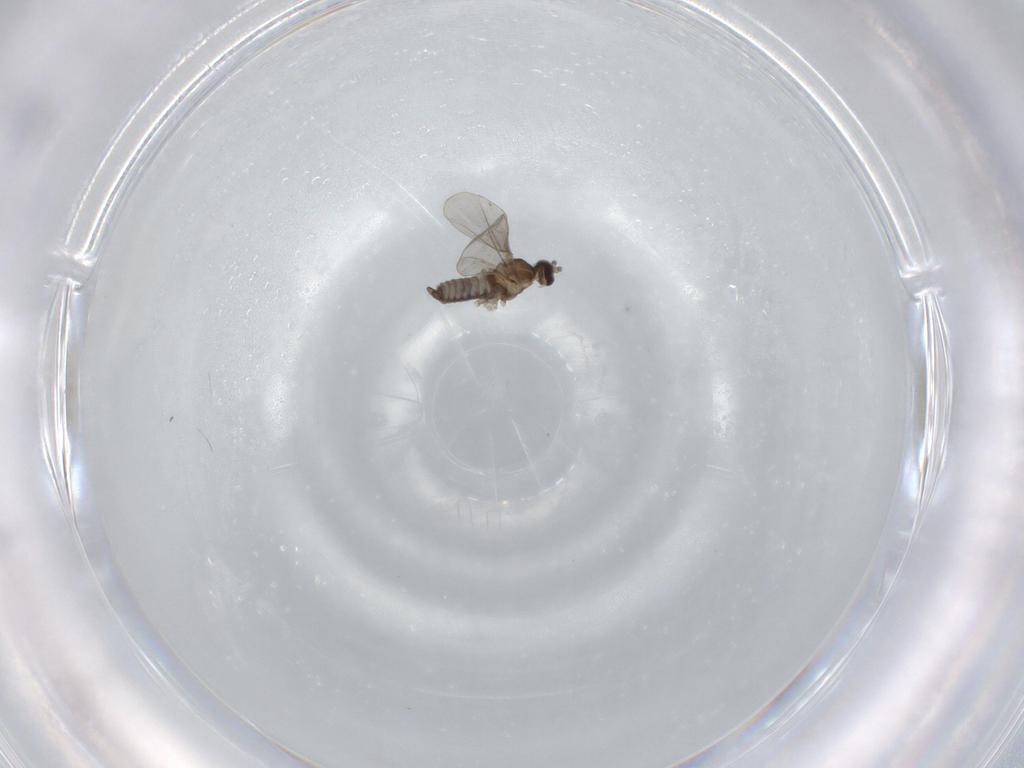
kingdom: Animalia
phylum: Arthropoda
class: Insecta
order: Diptera
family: Cecidomyiidae
